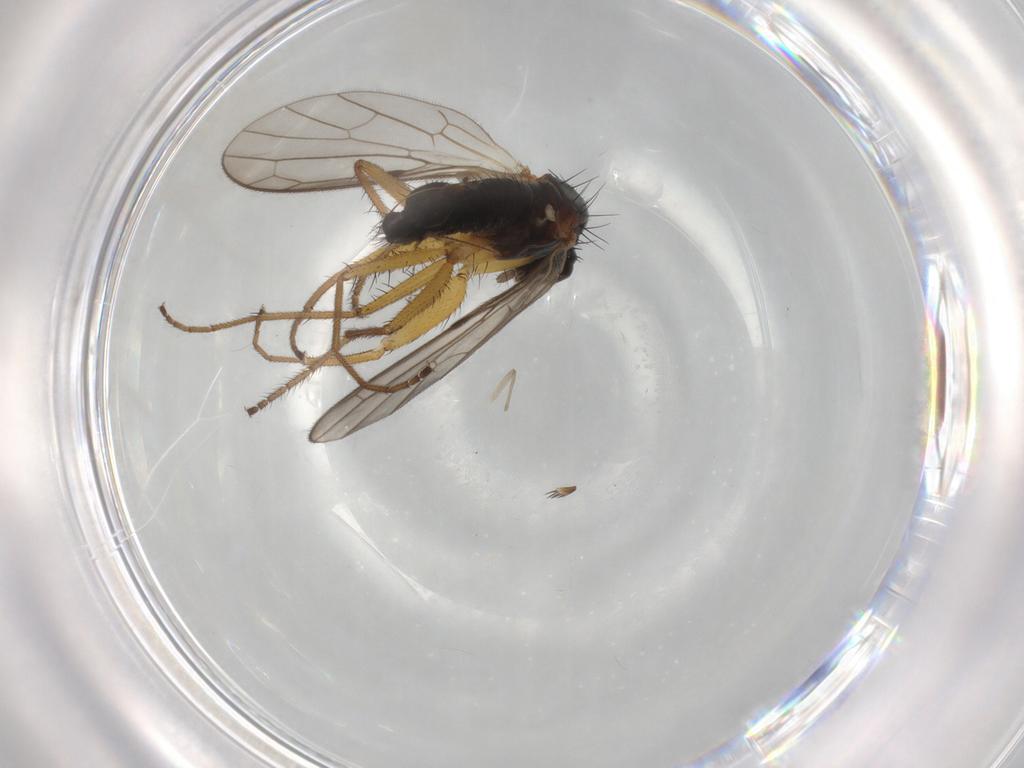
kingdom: Animalia
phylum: Arthropoda
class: Insecta
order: Diptera
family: Empididae
